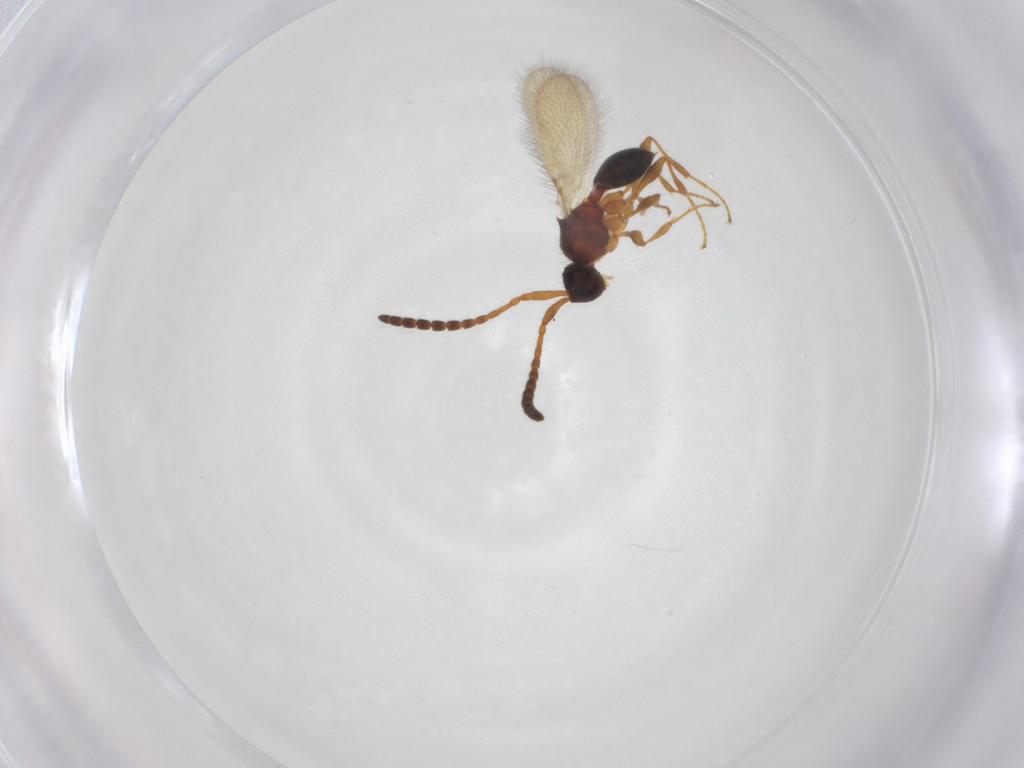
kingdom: Animalia
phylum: Arthropoda
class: Insecta
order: Hymenoptera
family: Diapriidae
